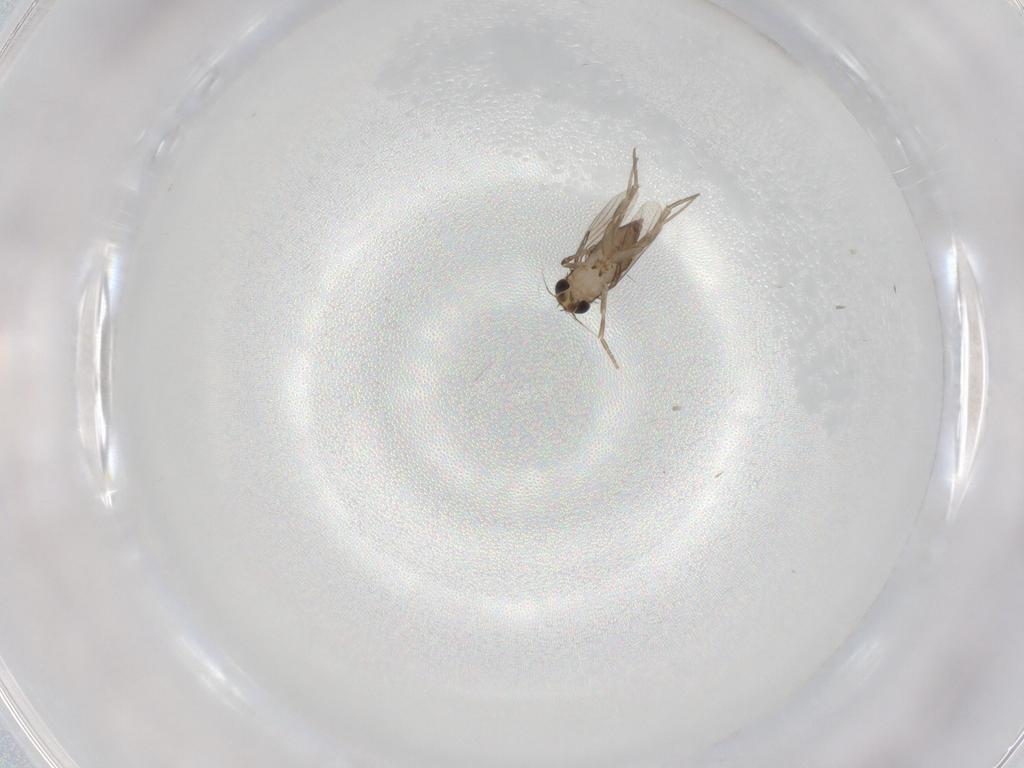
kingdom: Animalia
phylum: Arthropoda
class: Insecta
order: Diptera
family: Phoridae
